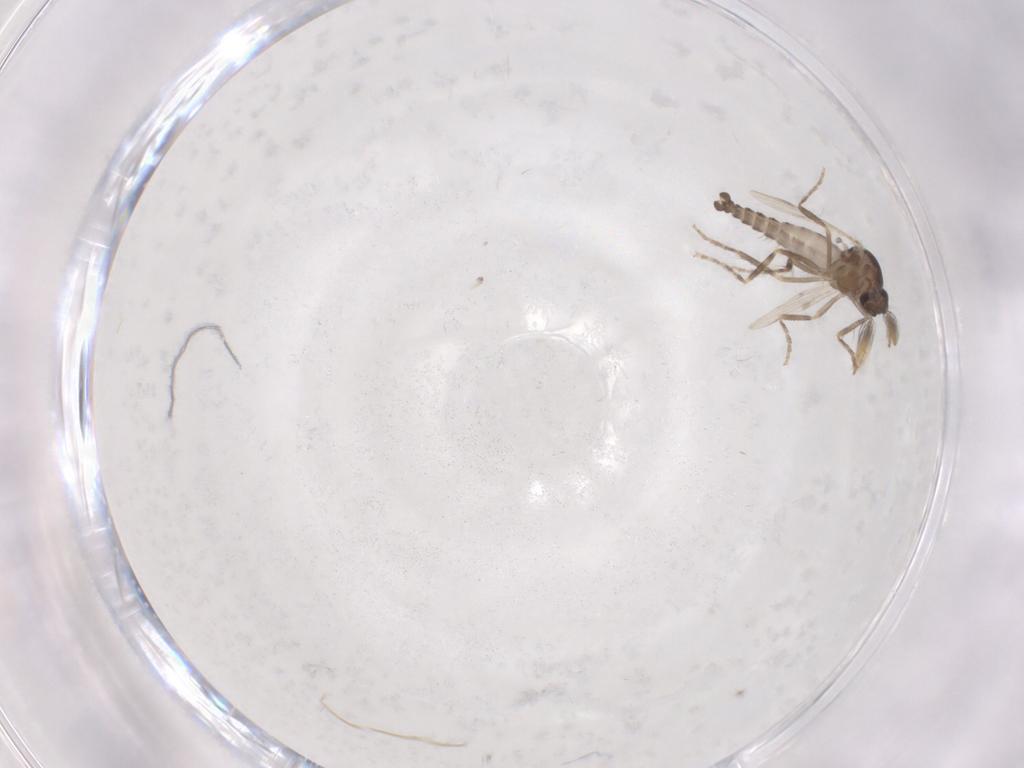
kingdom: Animalia
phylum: Arthropoda
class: Insecta
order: Diptera
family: Ceratopogonidae
